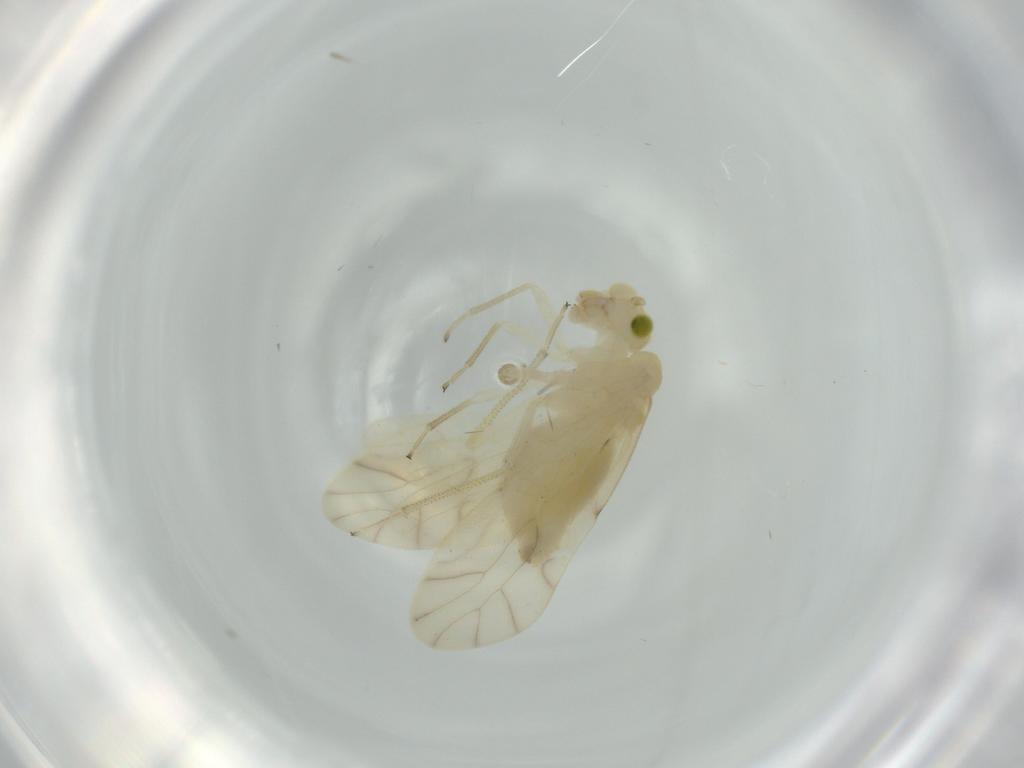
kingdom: Animalia
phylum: Arthropoda
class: Insecta
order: Psocodea
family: Caeciliusidae
